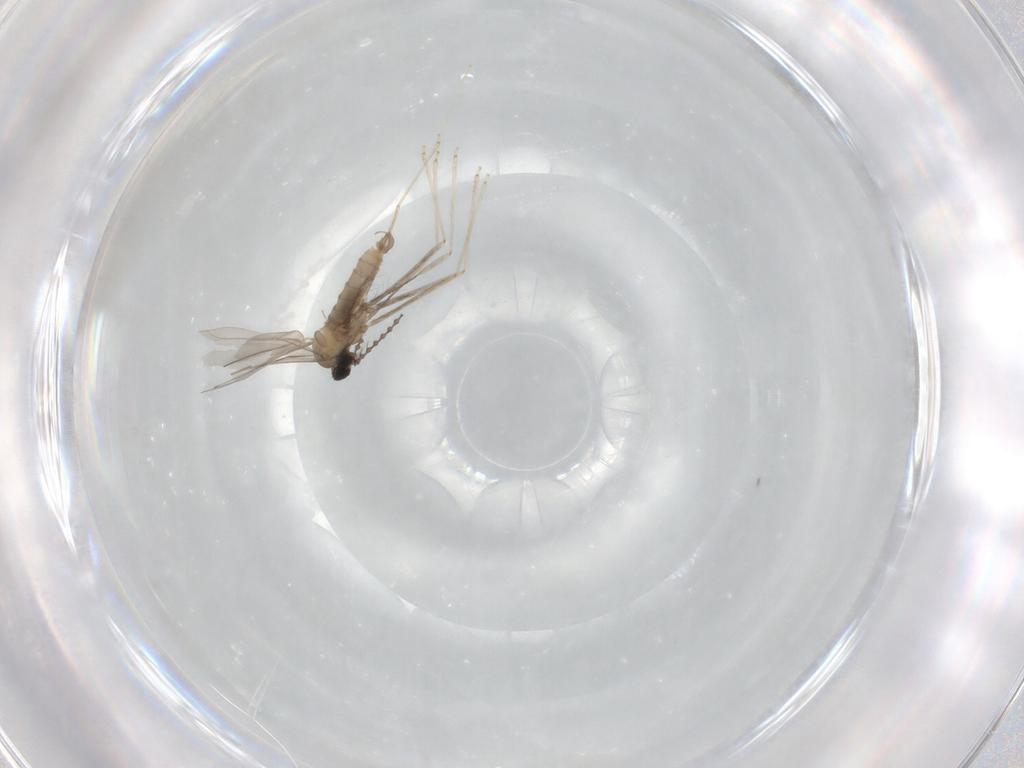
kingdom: Animalia
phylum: Arthropoda
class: Insecta
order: Diptera
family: Cecidomyiidae
